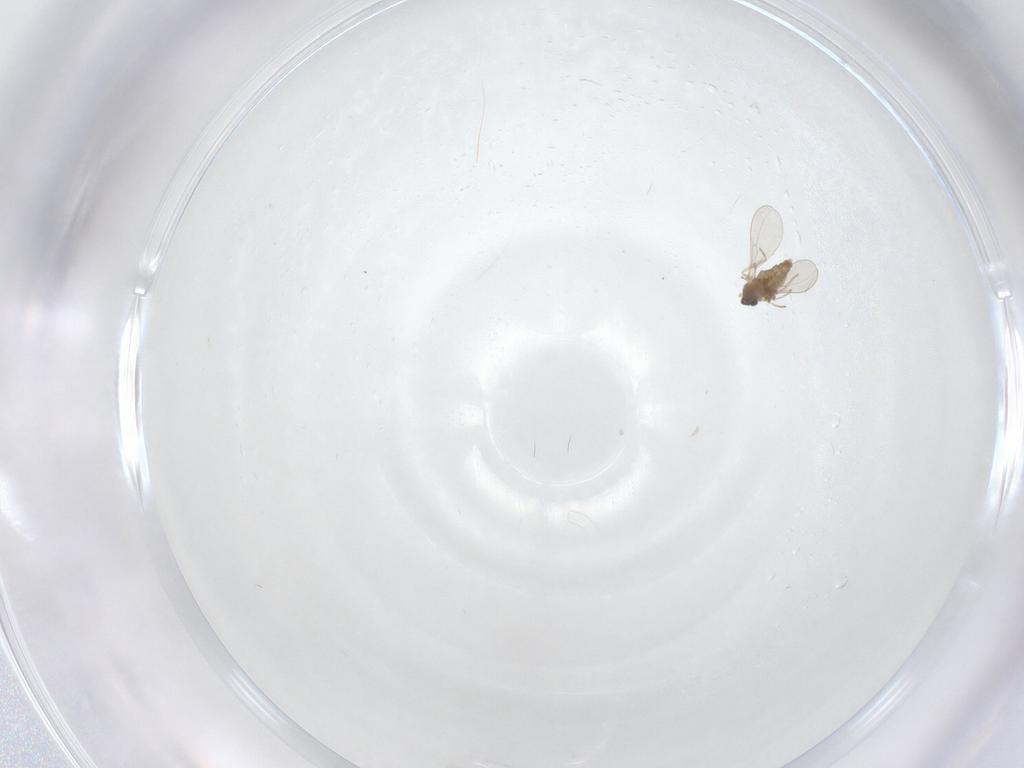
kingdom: Animalia
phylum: Arthropoda
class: Insecta
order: Diptera
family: Cecidomyiidae
